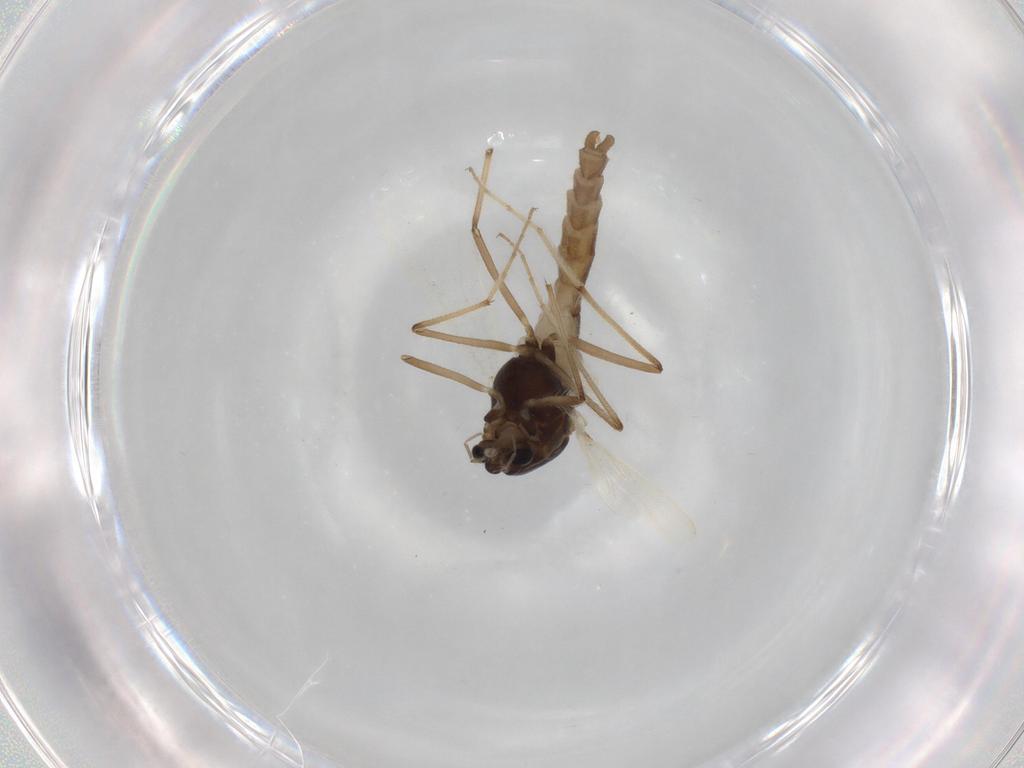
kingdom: Animalia
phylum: Arthropoda
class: Insecta
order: Diptera
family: Chironomidae
